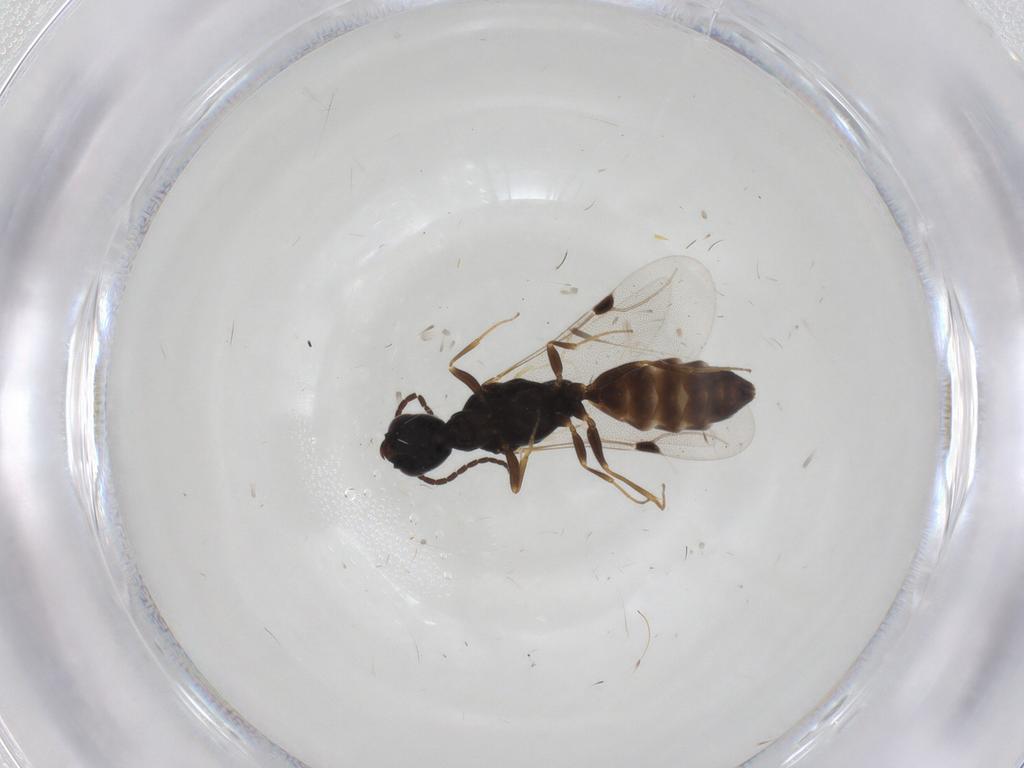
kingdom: Animalia
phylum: Arthropoda
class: Insecta
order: Hymenoptera
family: Bethylidae
